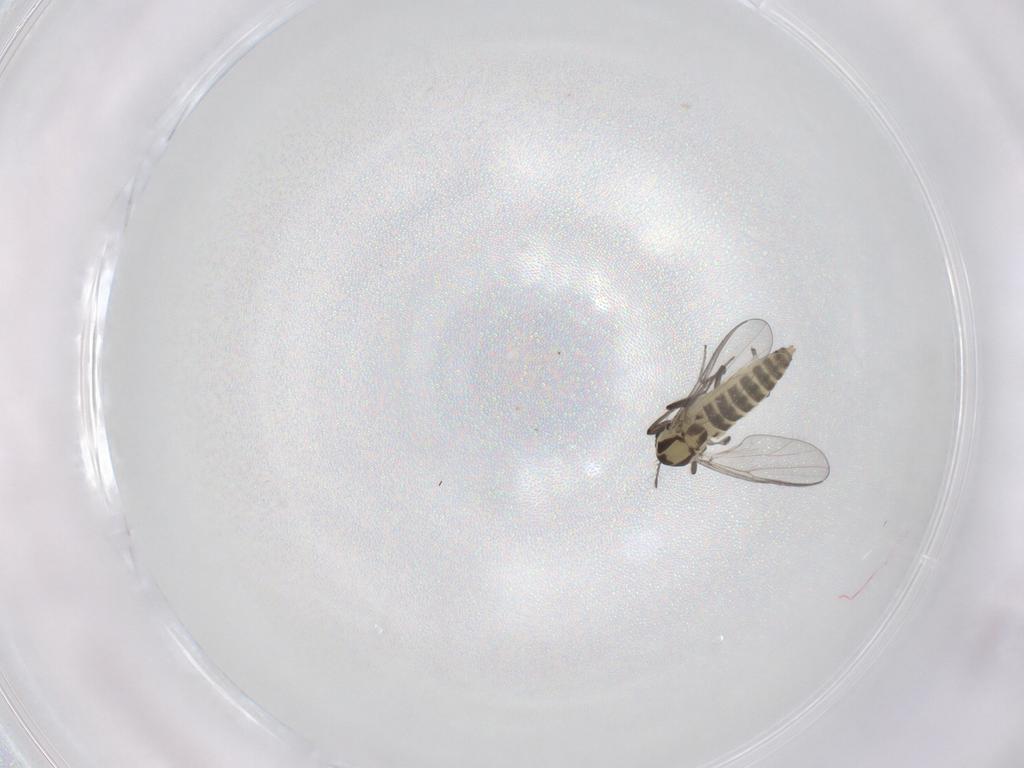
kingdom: Animalia
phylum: Arthropoda
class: Insecta
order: Diptera
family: Chironomidae
